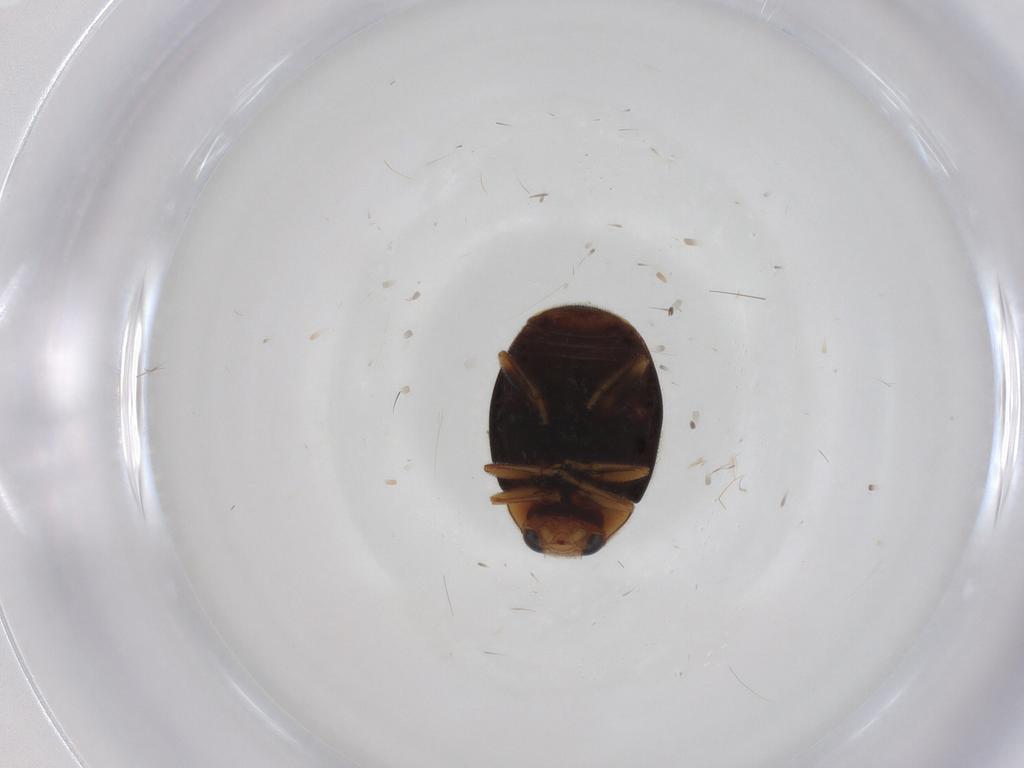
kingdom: Animalia
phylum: Arthropoda
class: Insecta
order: Coleoptera
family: Coccinellidae
